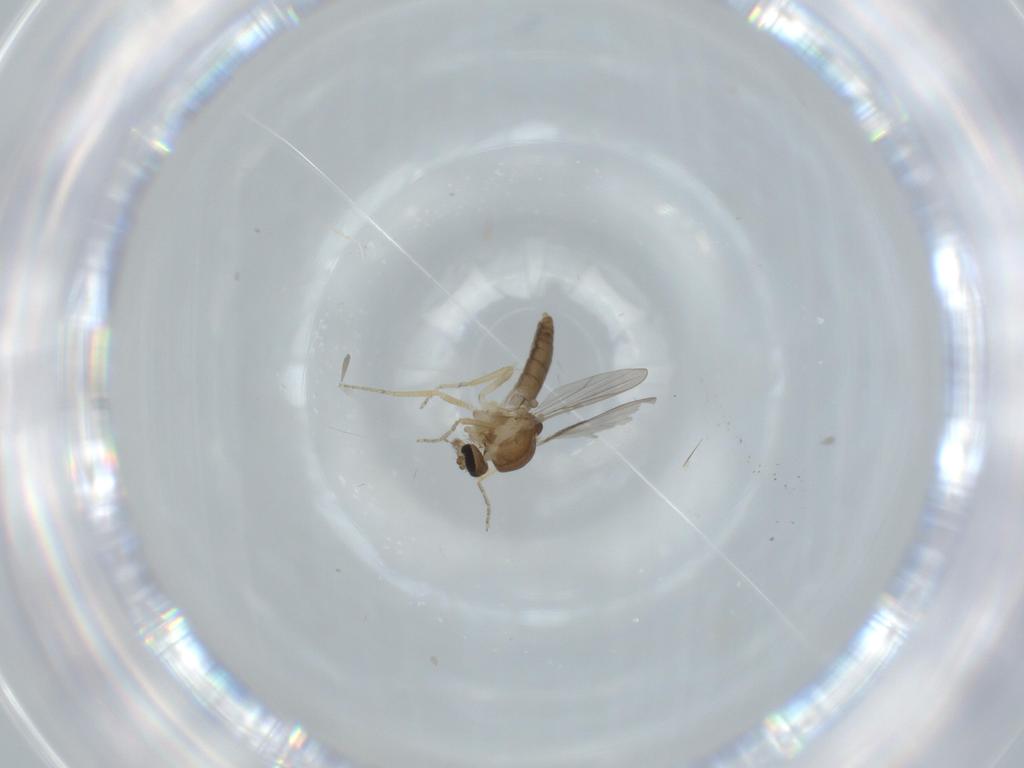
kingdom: Animalia
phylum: Arthropoda
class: Insecta
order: Diptera
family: Ceratopogonidae
